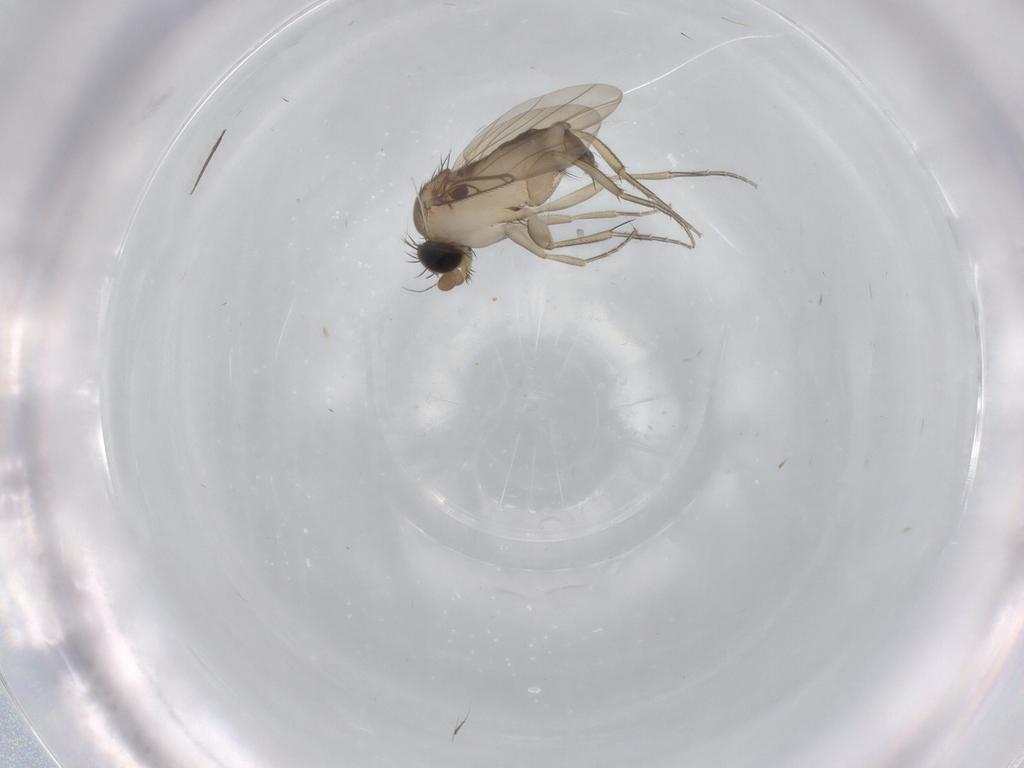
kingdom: Animalia
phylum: Arthropoda
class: Insecta
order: Diptera
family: Phoridae
